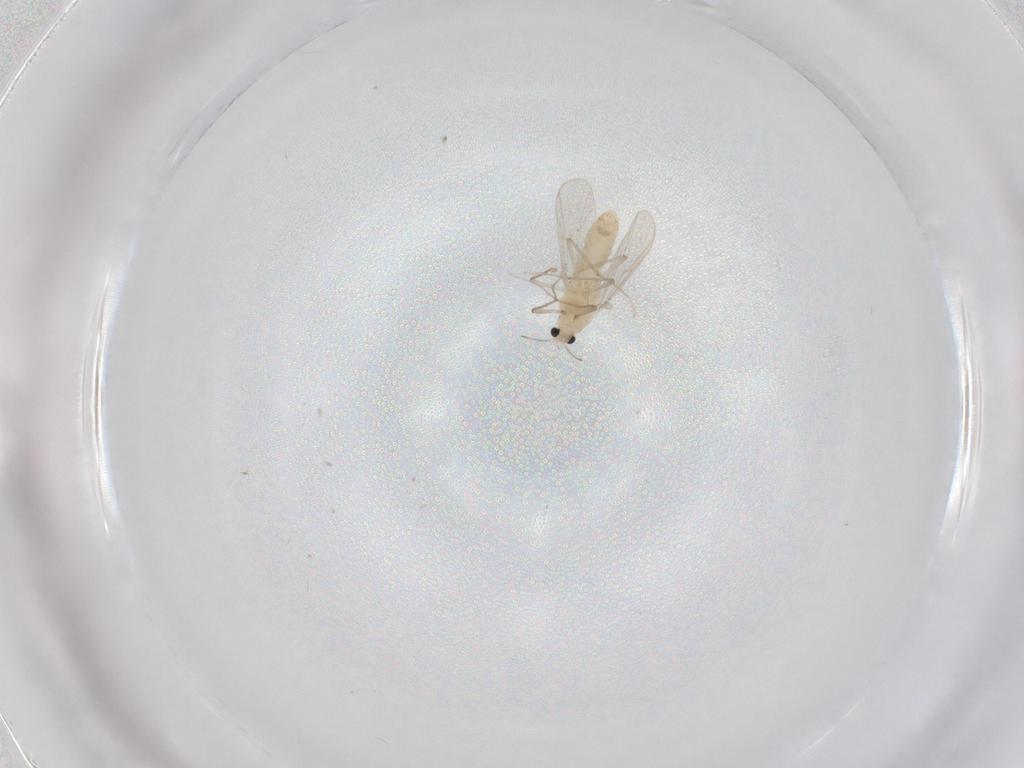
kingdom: Animalia
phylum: Arthropoda
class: Insecta
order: Diptera
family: Chironomidae
